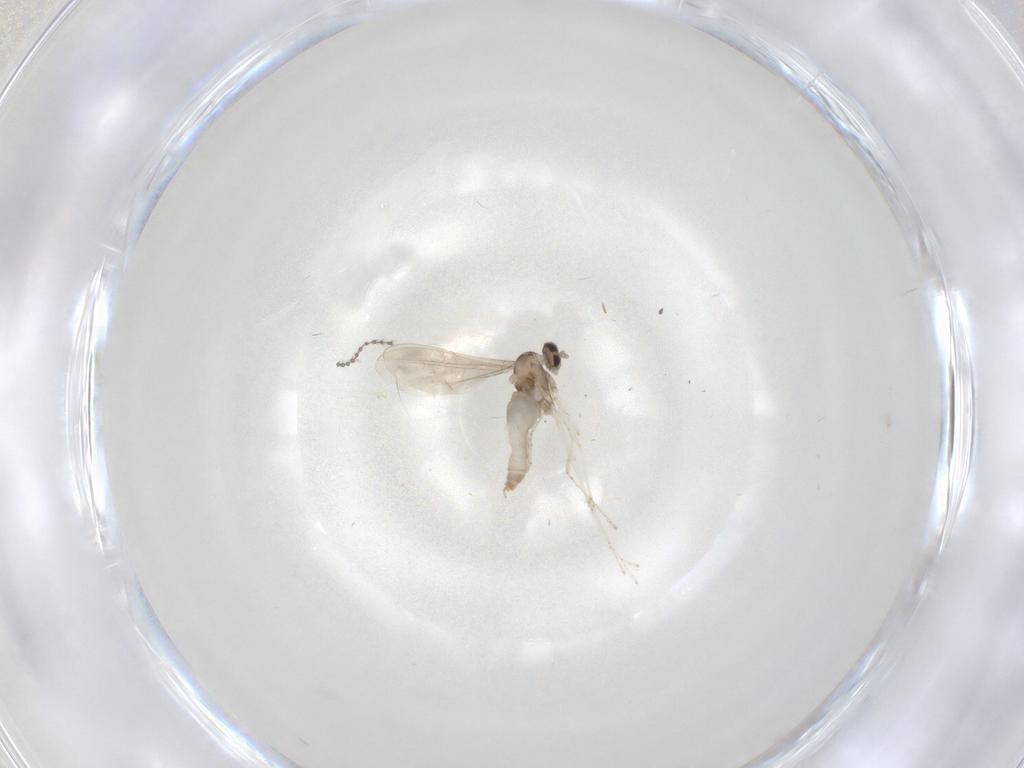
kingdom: Animalia
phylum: Arthropoda
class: Insecta
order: Diptera
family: Cecidomyiidae
